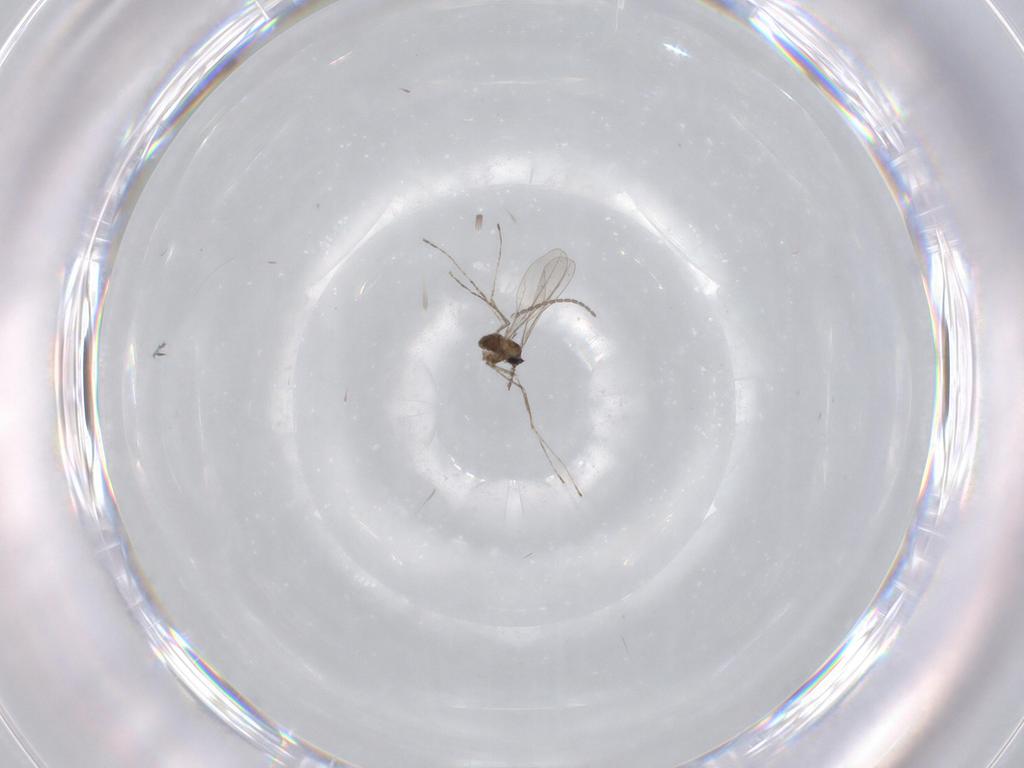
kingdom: Animalia
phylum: Arthropoda
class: Insecta
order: Diptera
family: Cecidomyiidae
